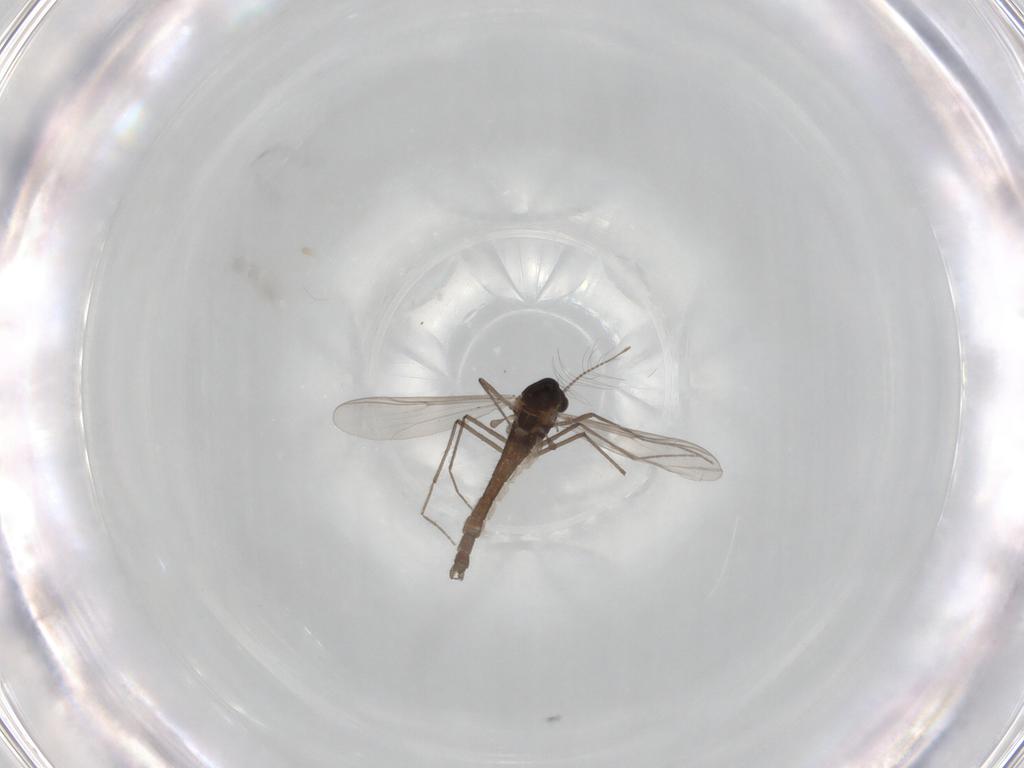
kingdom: Animalia
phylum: Arthropoda
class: Insecta
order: Diptera
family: Chironomidae
